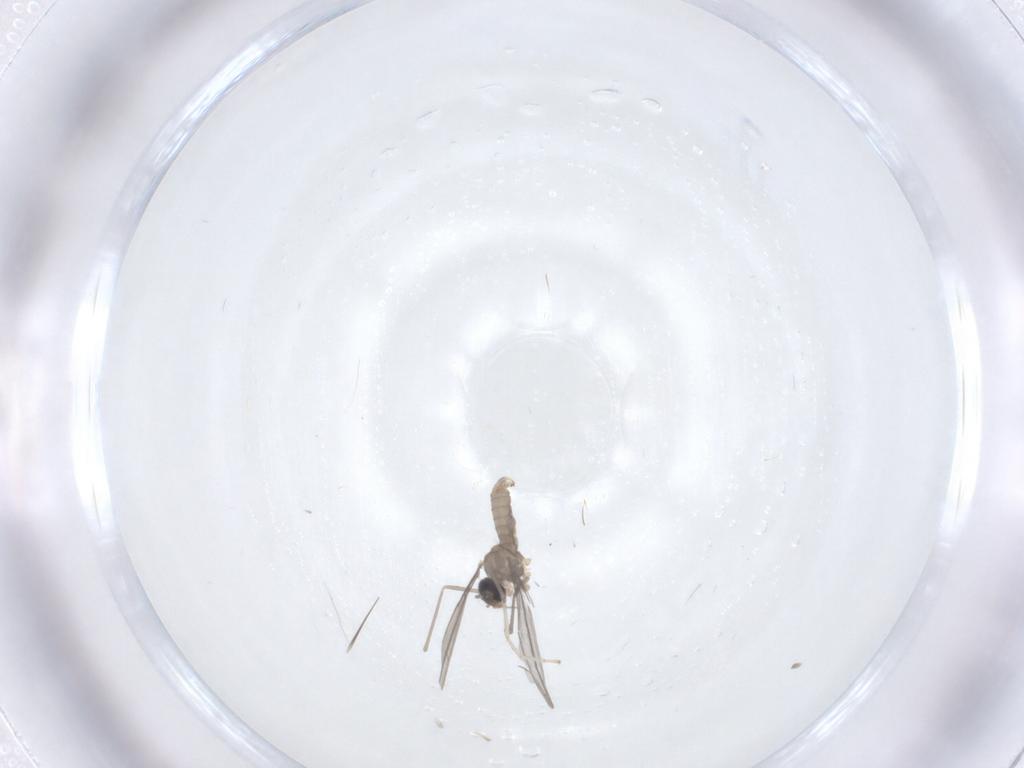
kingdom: Animalia
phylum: Arthropoda
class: Insecta
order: Diptera
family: Cecidomyiidae
